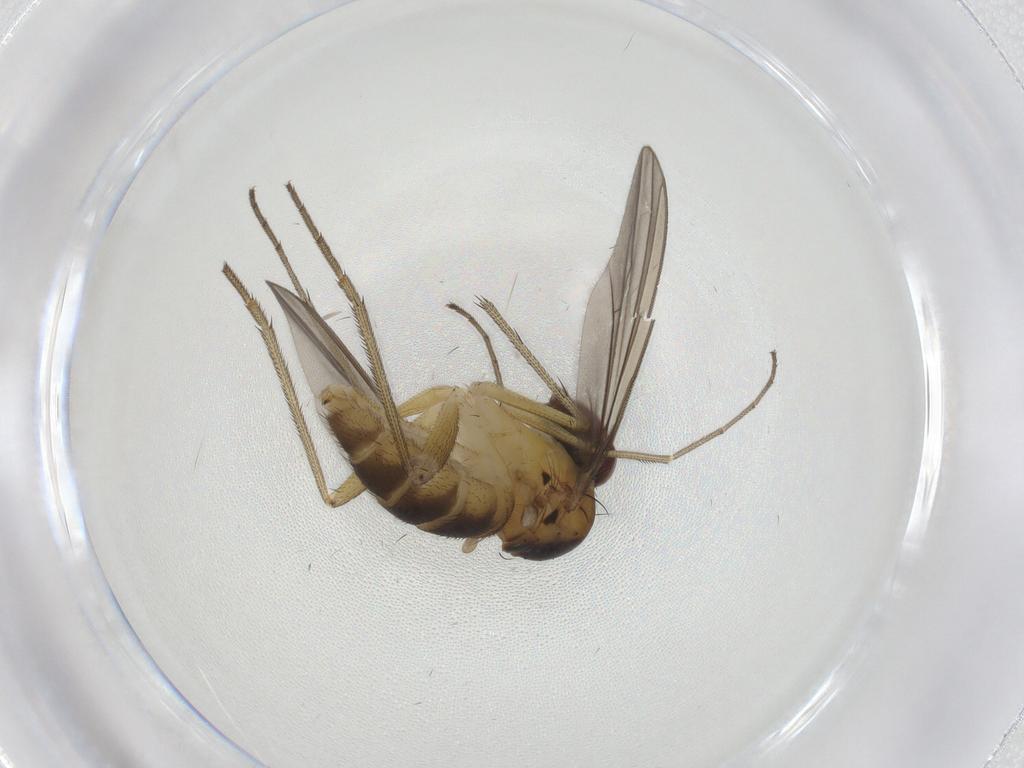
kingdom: Animalia
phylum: Arthropoda
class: Insecta
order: Diptera
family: Dolichopodidae
